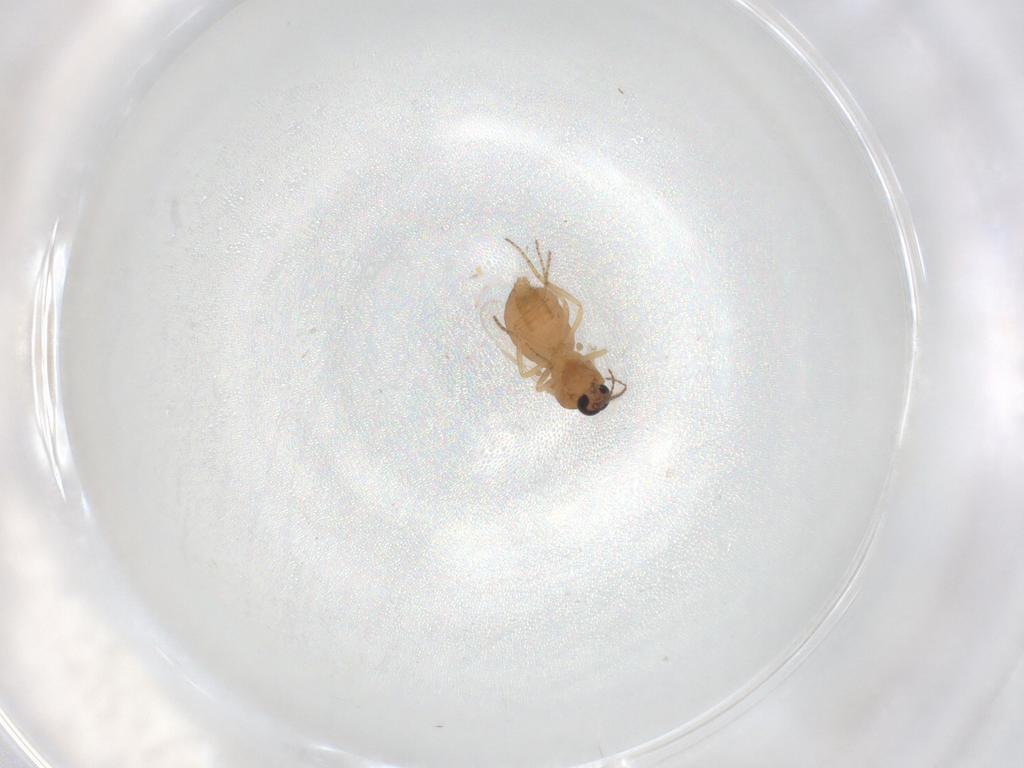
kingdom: Animalia
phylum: Arthropoda
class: Insecta
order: Diptera
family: Ceratopogonidae
